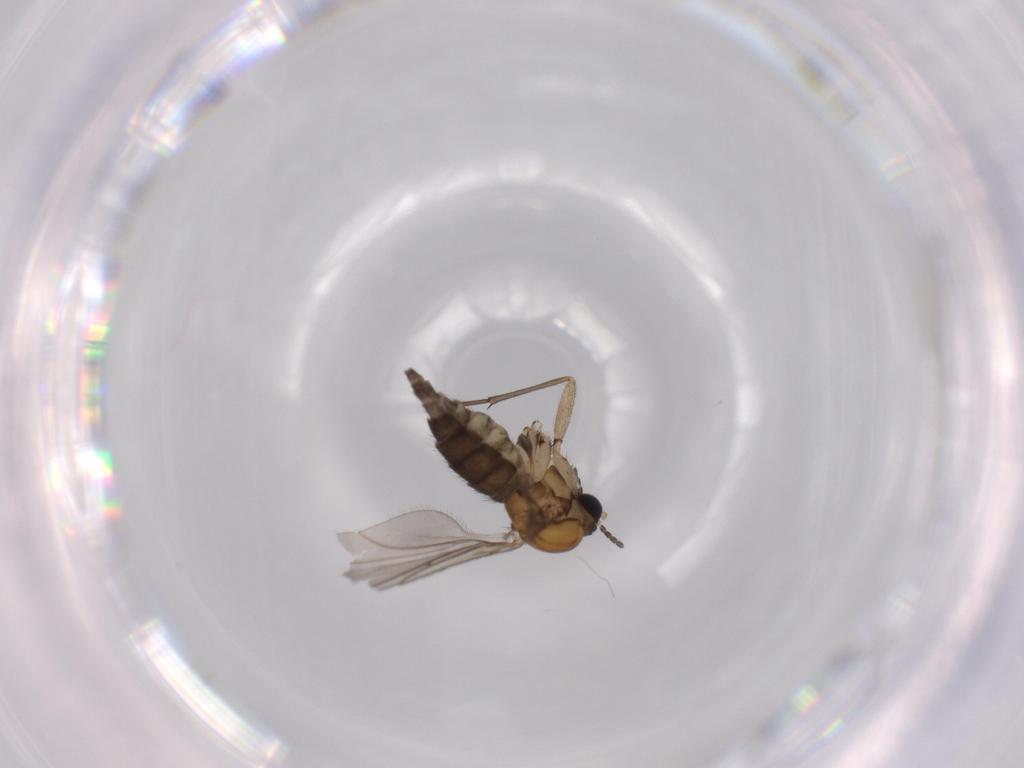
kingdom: Animalia
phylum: Arthropoda
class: Insecta
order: Diptera
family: Sciaridae
